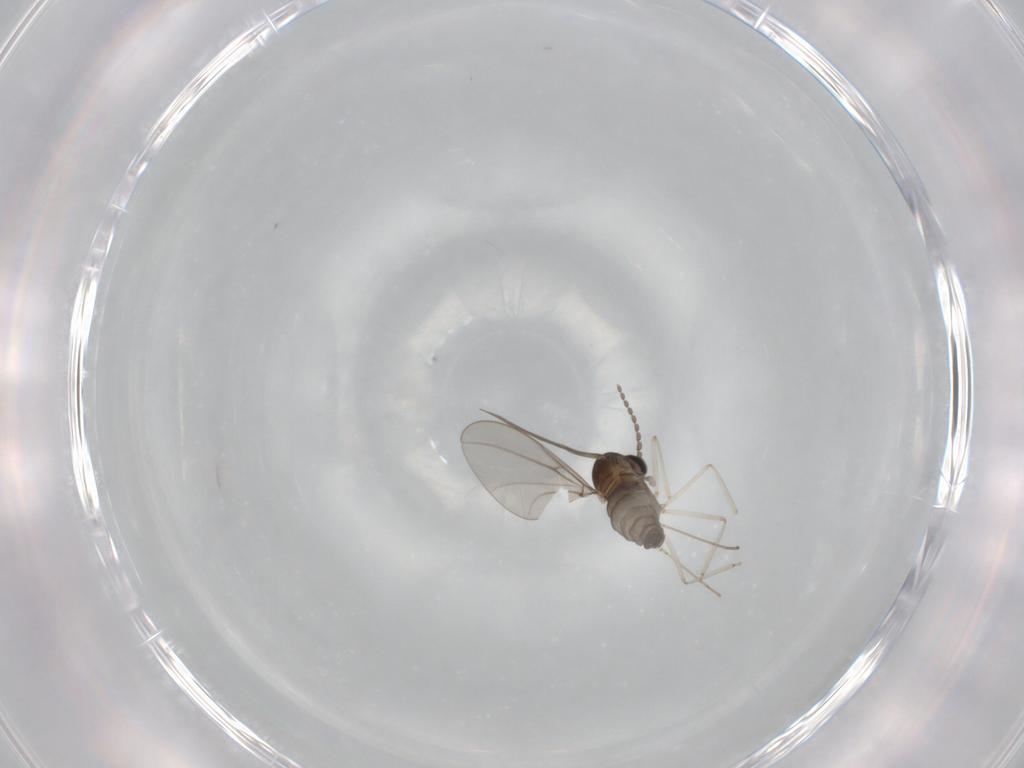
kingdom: Animalia
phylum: Arthropoda
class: Insecta
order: Diptera
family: Cecidomyiidae
